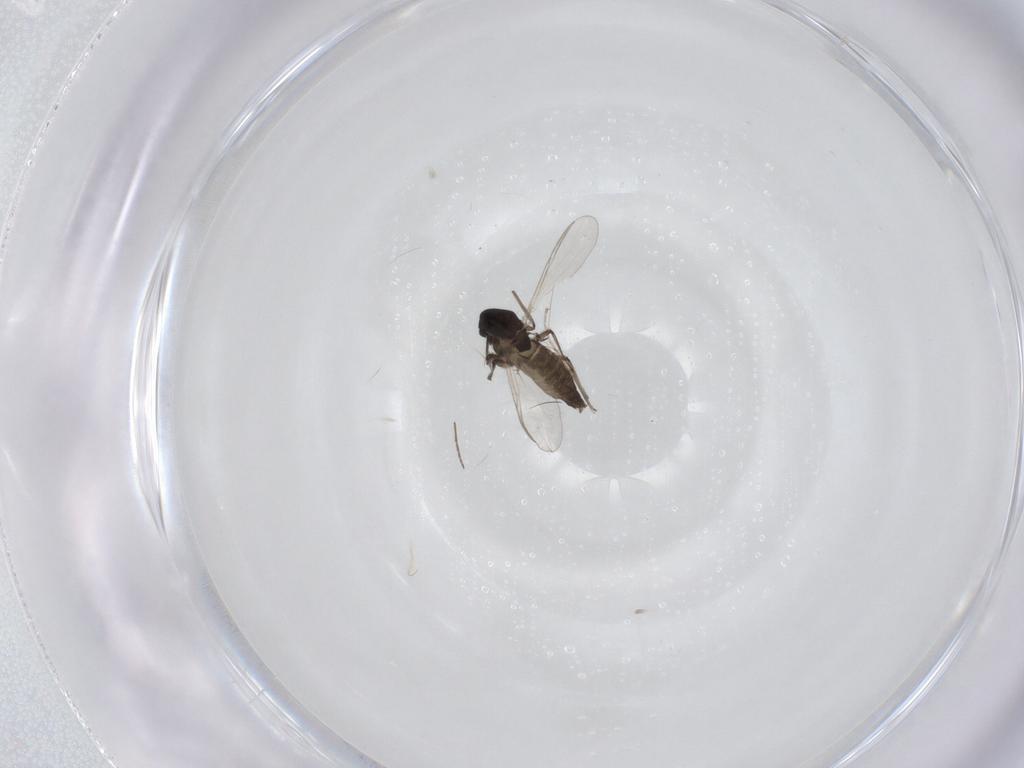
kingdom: Animalia
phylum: Arthropoda
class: Insecta
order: Diptera
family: Chironomidae
